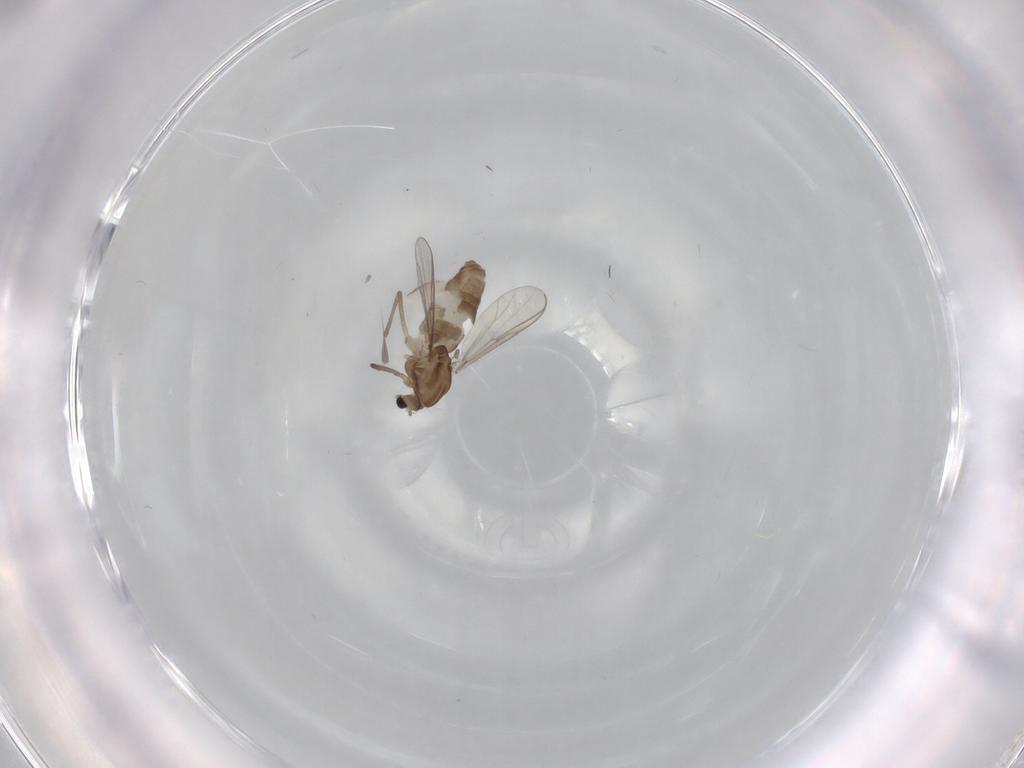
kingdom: Animalia
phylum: Arthropoda
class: Insecta
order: Diptera
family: Chironomidae
